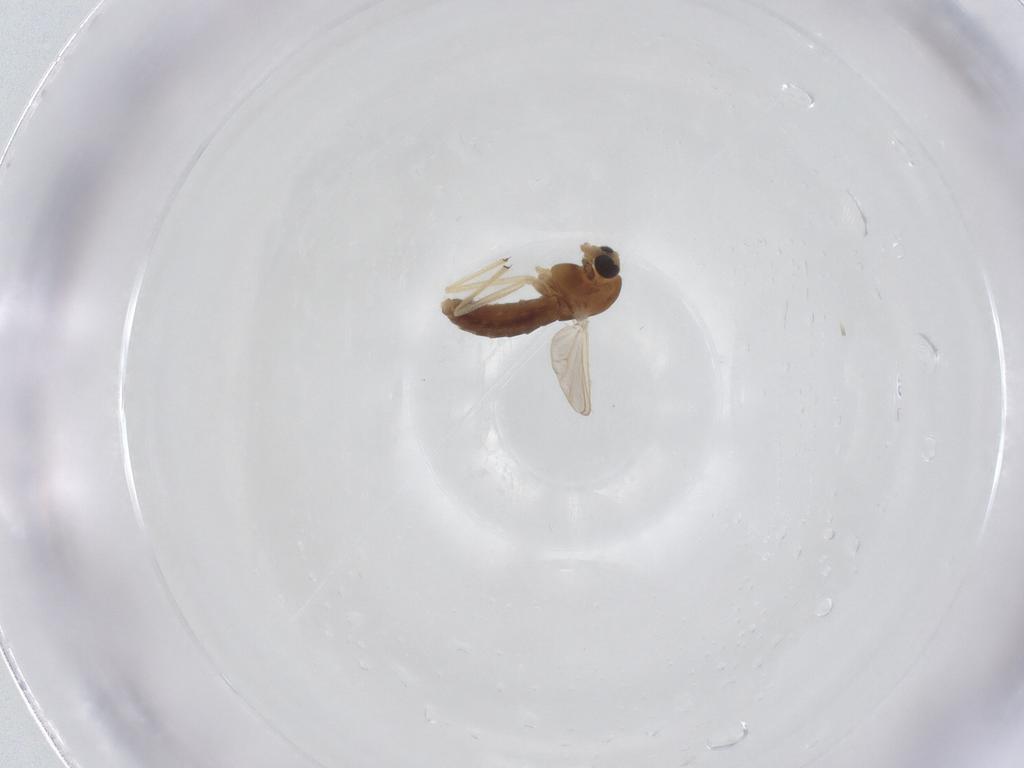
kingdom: Animalia
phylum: Arthropoda
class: Insecta
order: Diptera
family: Chironomidae
